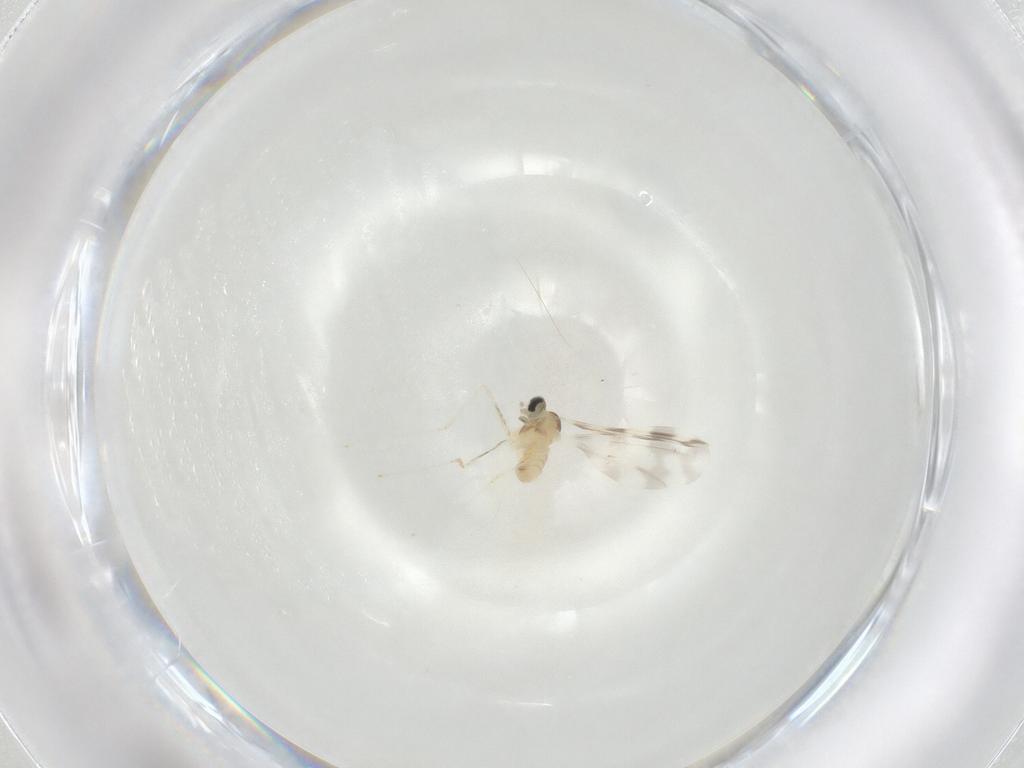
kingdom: Animalia
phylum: Arthropoda
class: Insecta
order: Diptera
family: Cecidomyiidae
